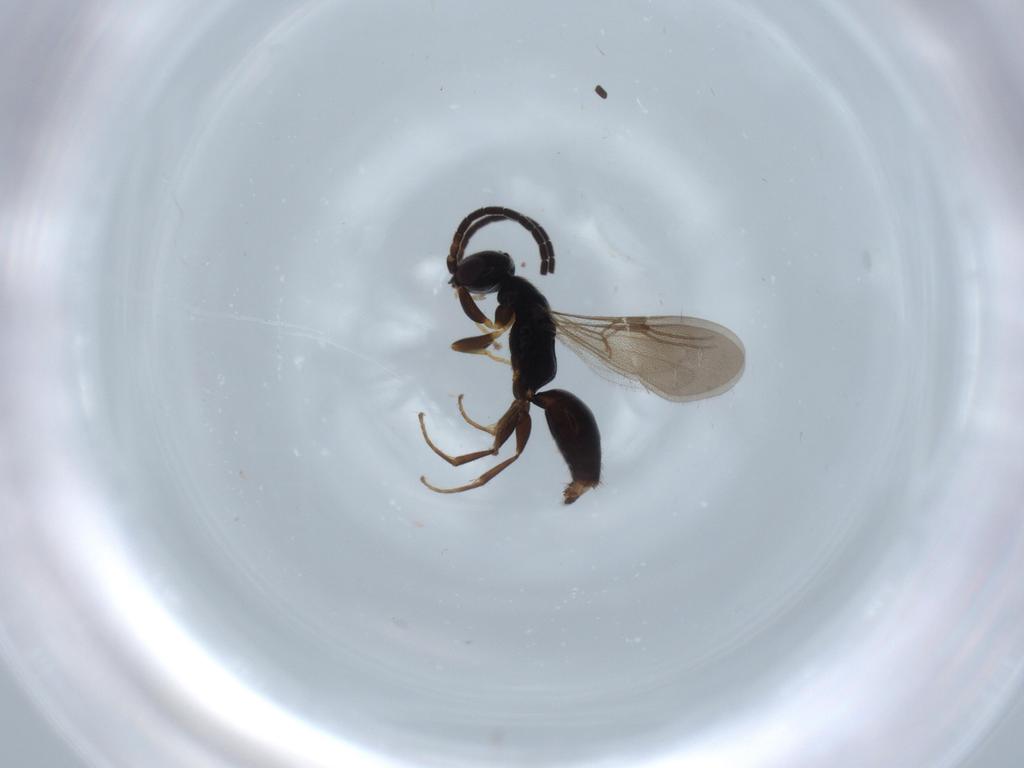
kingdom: Animalia
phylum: Arthropoda
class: Insecta
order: Hymenoptera
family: Bethylidae
